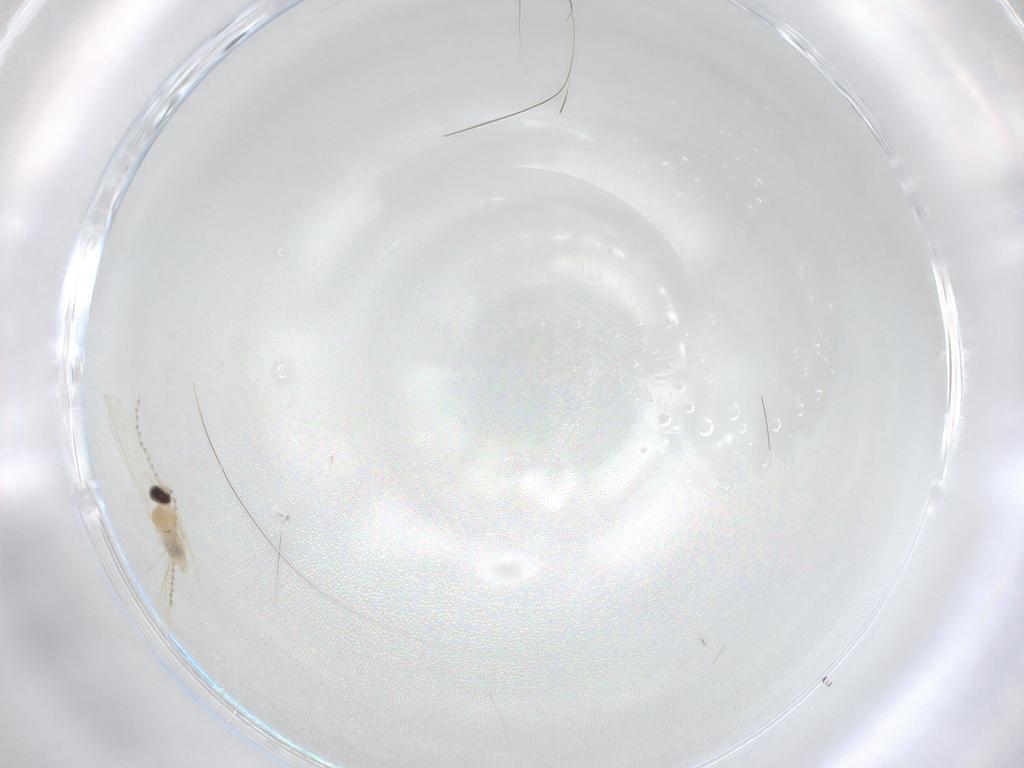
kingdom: Animalia
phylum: Arthropoda
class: Insecta
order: Diptera
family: Cecidomyiidae
